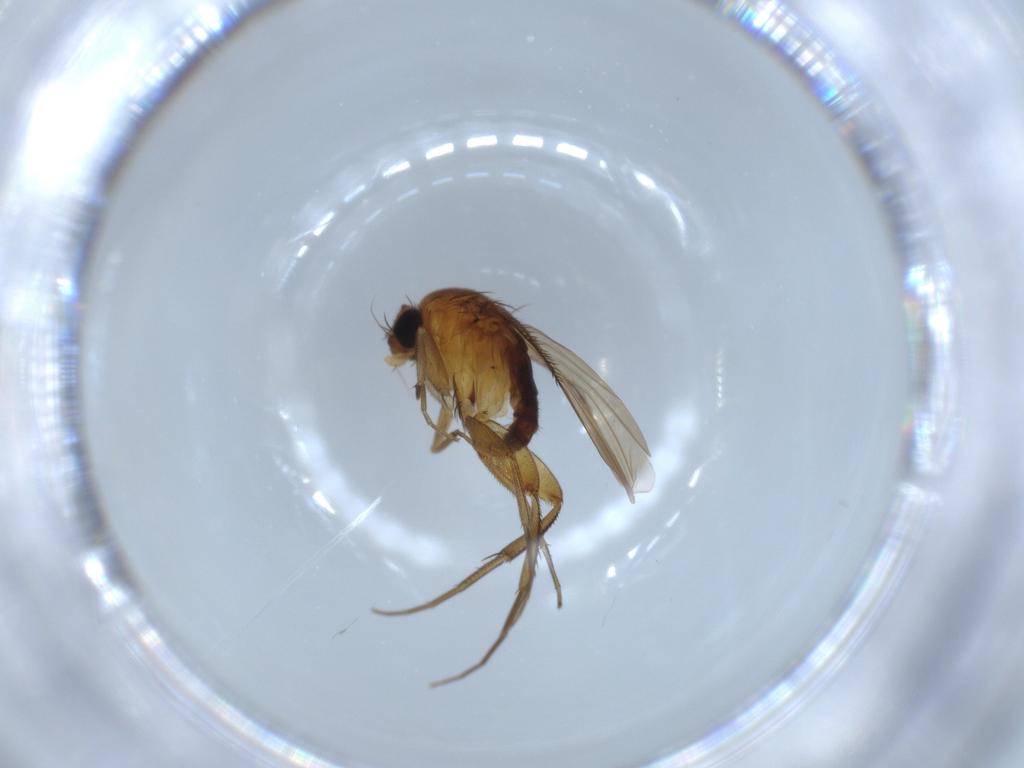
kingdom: Animalia
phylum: Arthropoda
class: Insecta
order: Diptera
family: Phoridae
